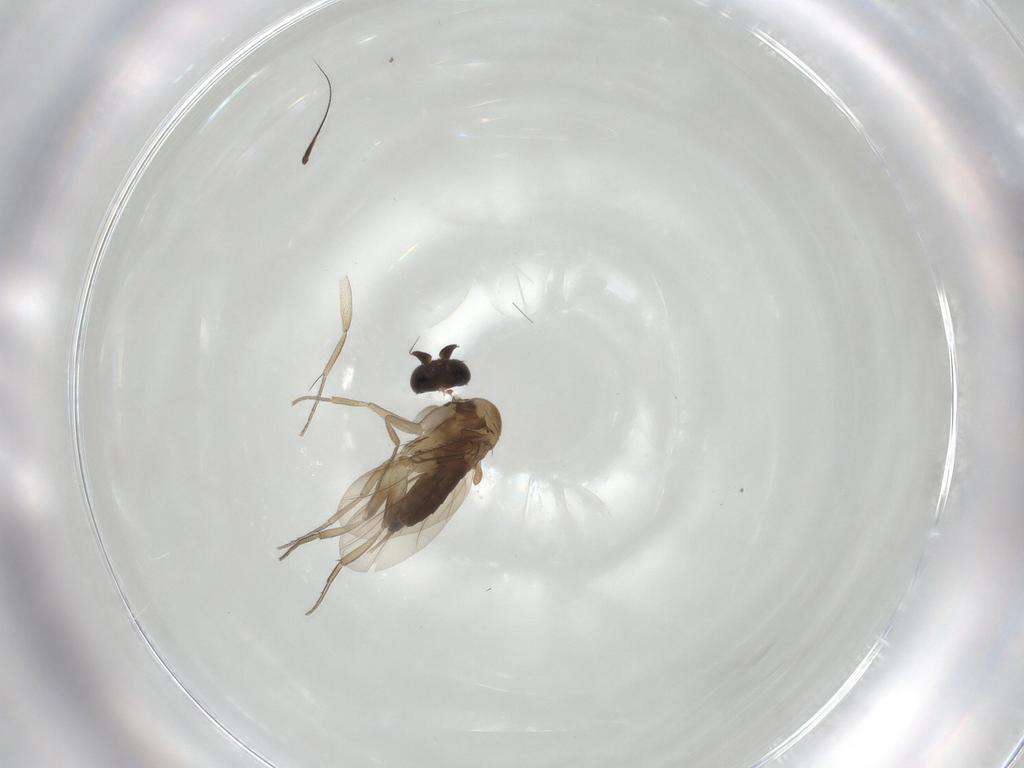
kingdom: Animalia
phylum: Arthropoda
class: Insecta
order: Diptera
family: Phoridae
